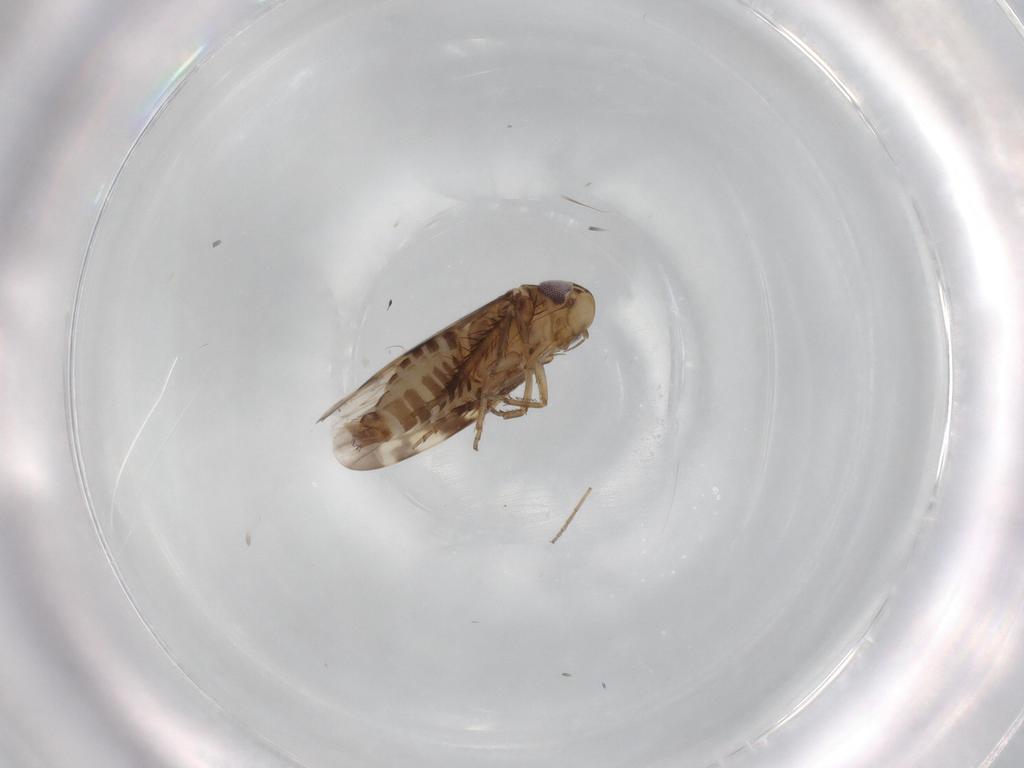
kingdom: Animalia
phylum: Arthropoda
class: Insecta
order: Hemiptera
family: Cicadellidae
